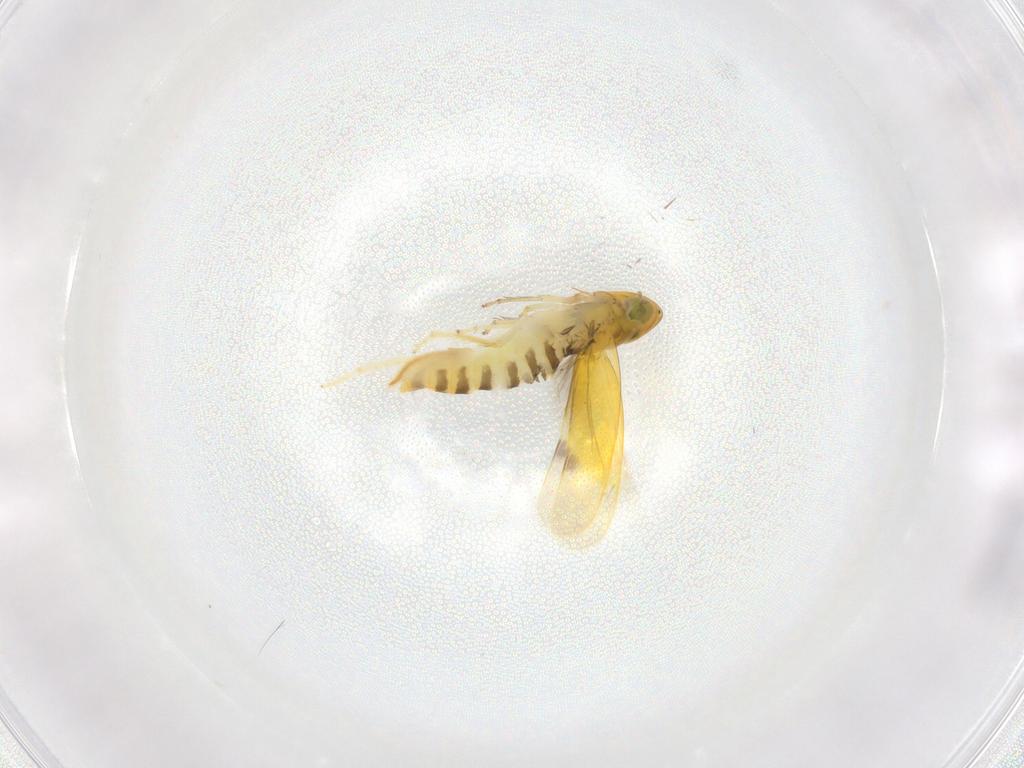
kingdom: Animalia
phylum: Arthropoda
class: Insecta
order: Hemiptera
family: Cicadellidae
